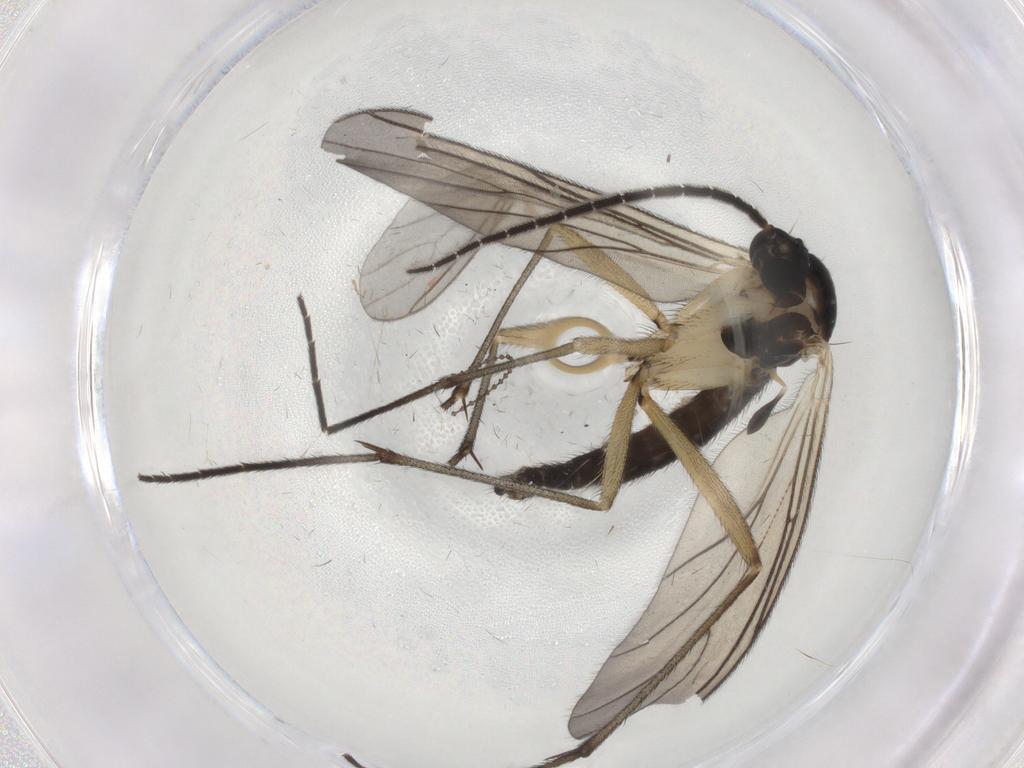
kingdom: Animalia
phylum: Arthropoda
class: Insecta
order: Diptera
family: Sciaridae
